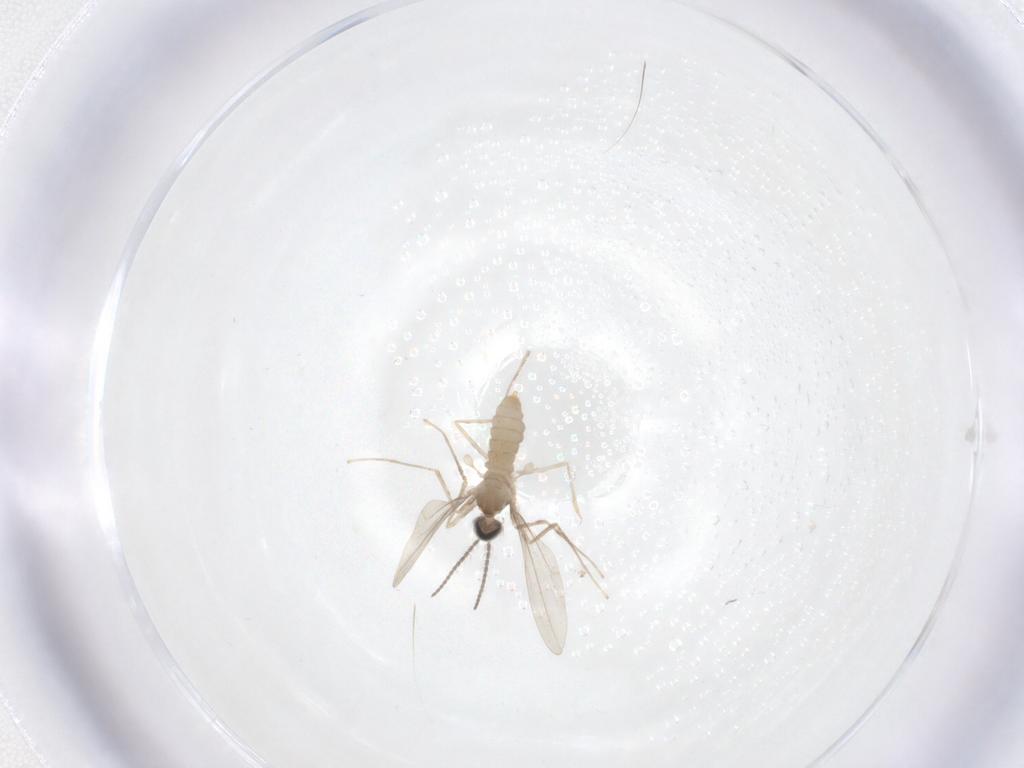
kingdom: Animalia
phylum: Arthropoda
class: Insecta
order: Diptera
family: Cecidomyiidae
